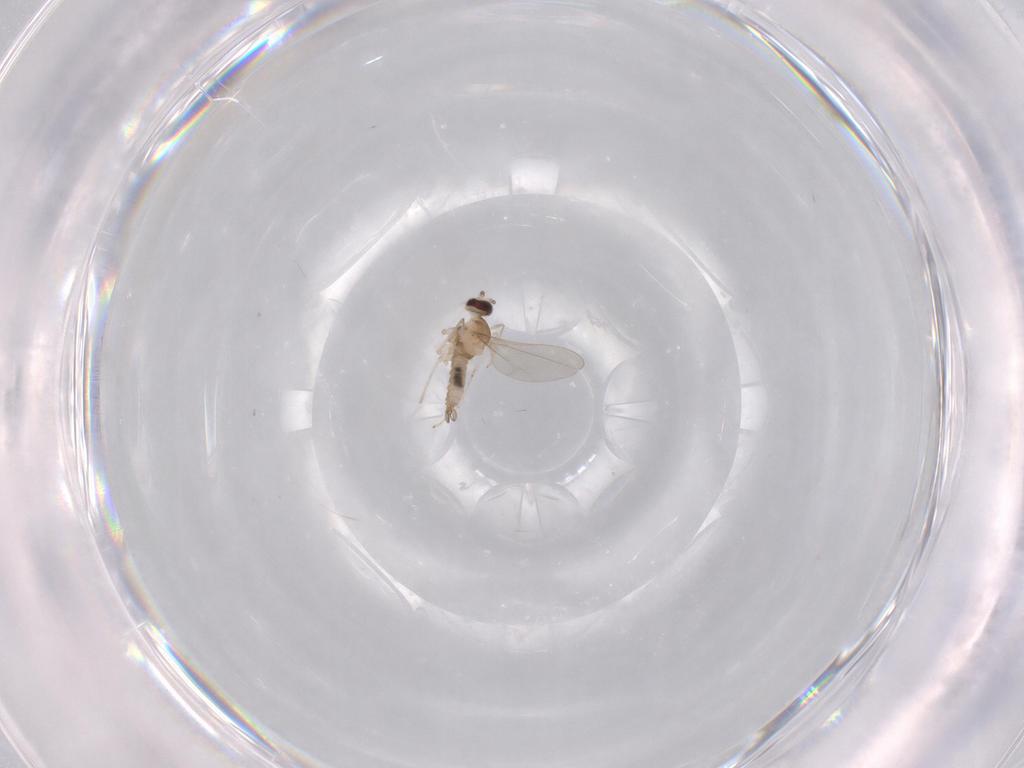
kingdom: Animalia
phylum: Arthropoda
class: Insecta
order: Diptera
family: Cecidomyiidae
